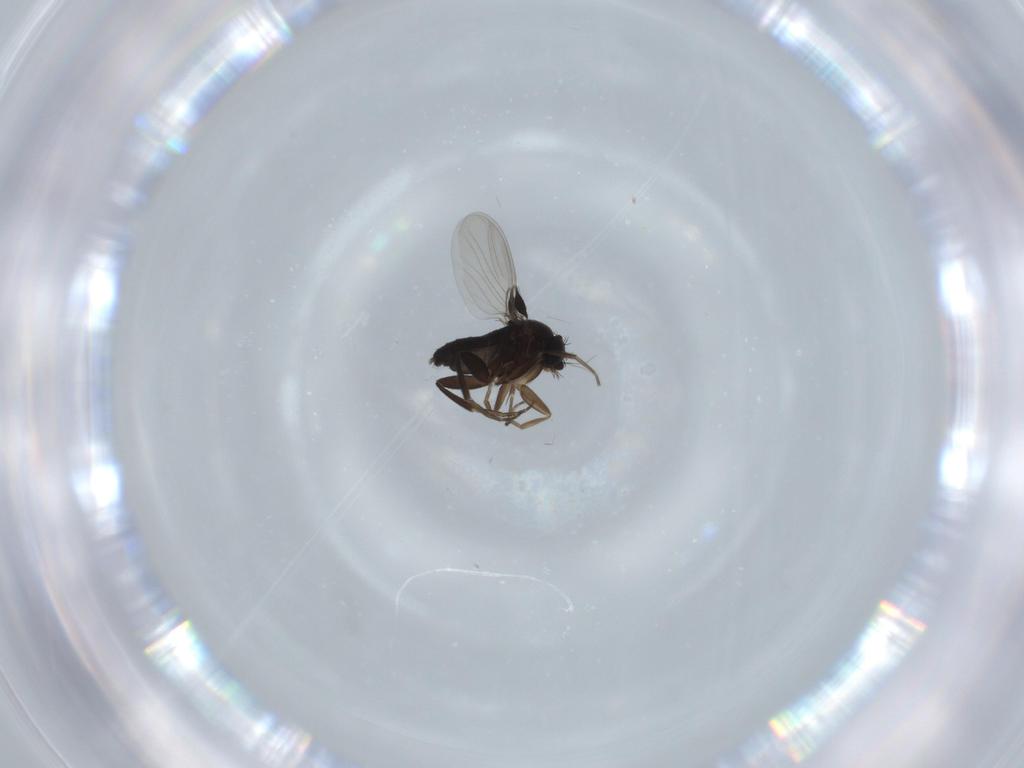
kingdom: Animalia
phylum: Arthropoda
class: Insecta
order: Diptera
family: Phoridae
